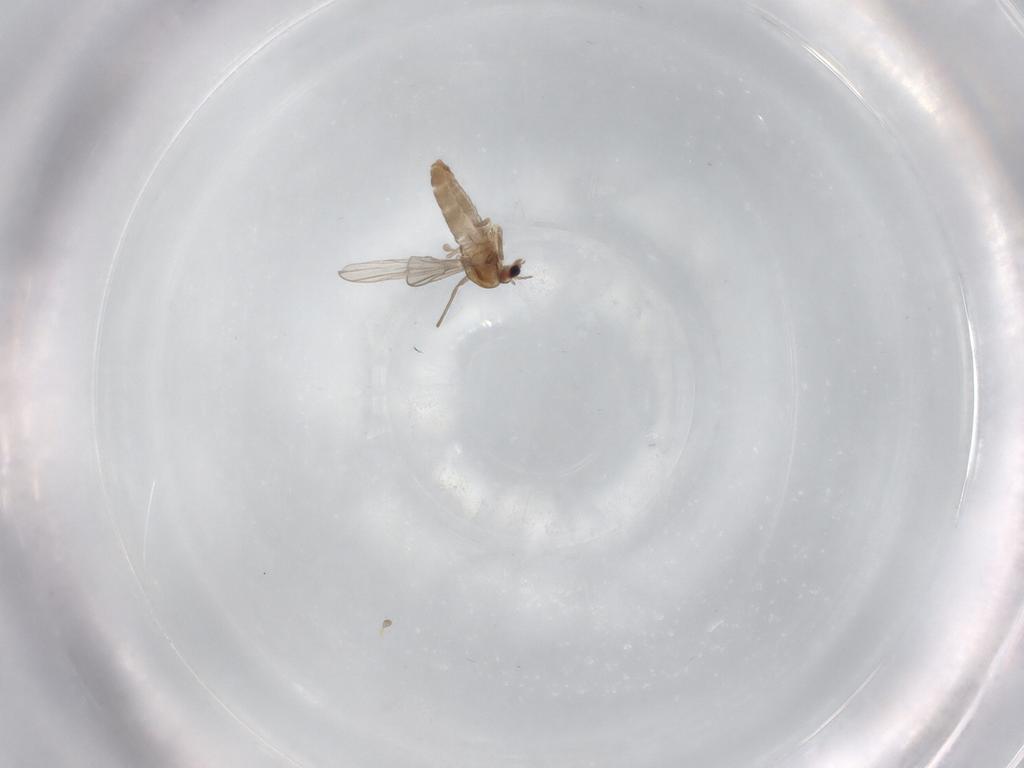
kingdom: Animalia
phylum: Arthropoda
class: Insecta
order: Diptera
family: Chironomidae
